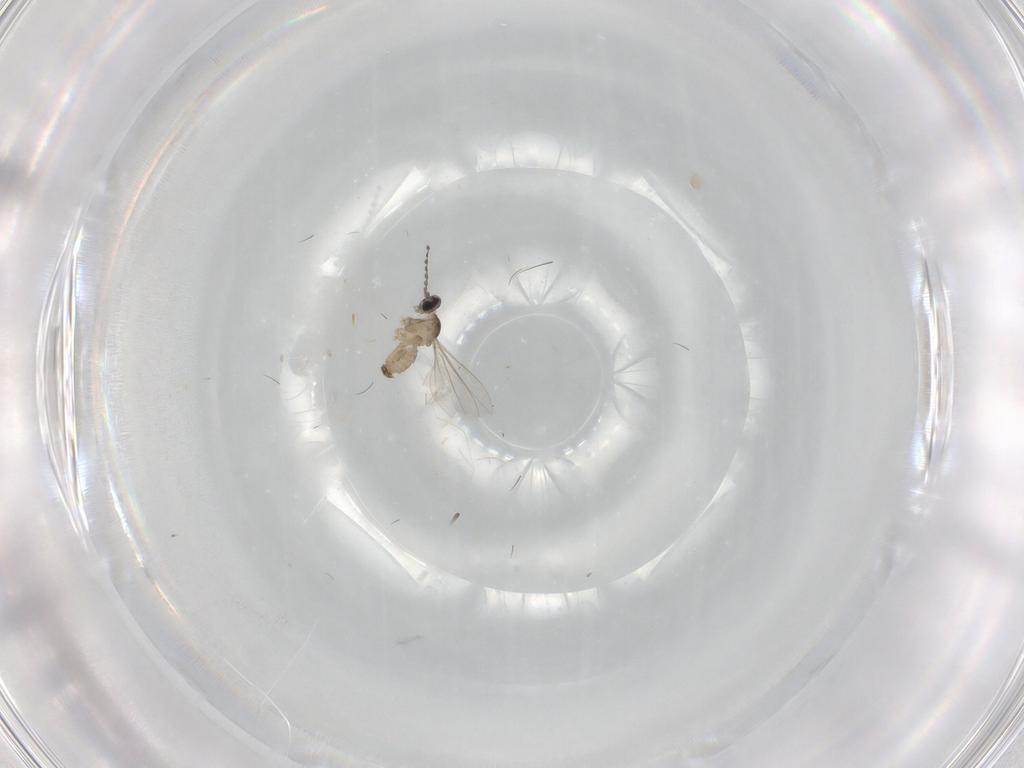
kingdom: Animalia
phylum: Arthropoda
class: Insecta
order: Diptera
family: Cecidomyiidae
